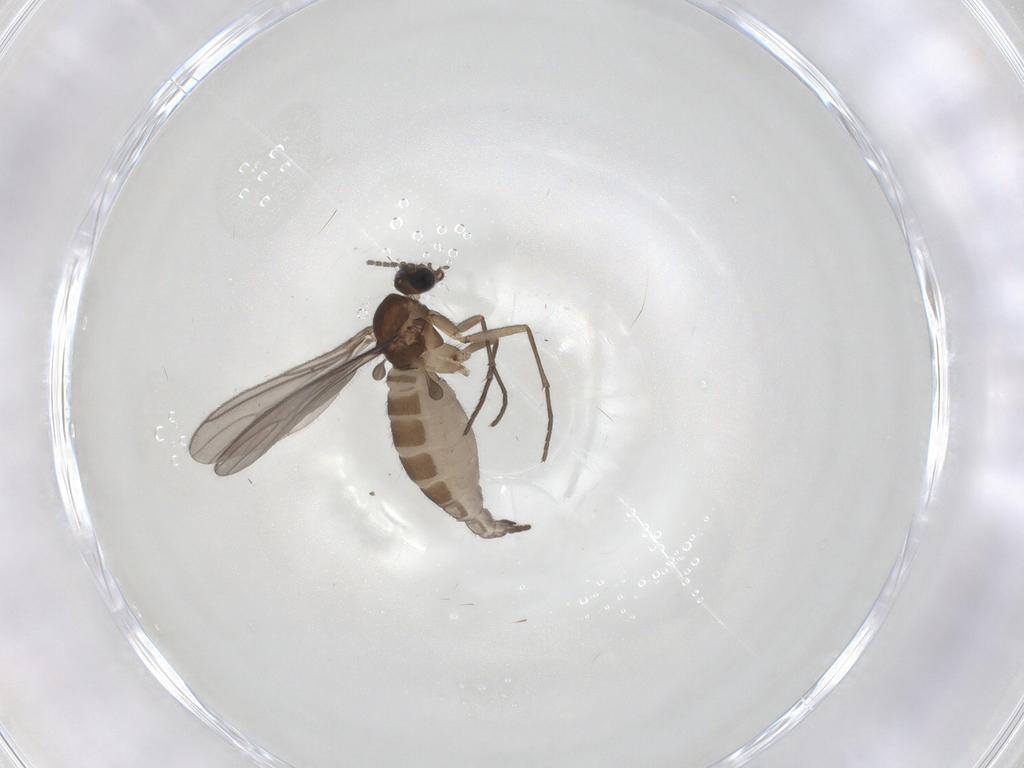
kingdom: Animalia
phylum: Arthropoda
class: Insecta
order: Diptera
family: Sciaridae
